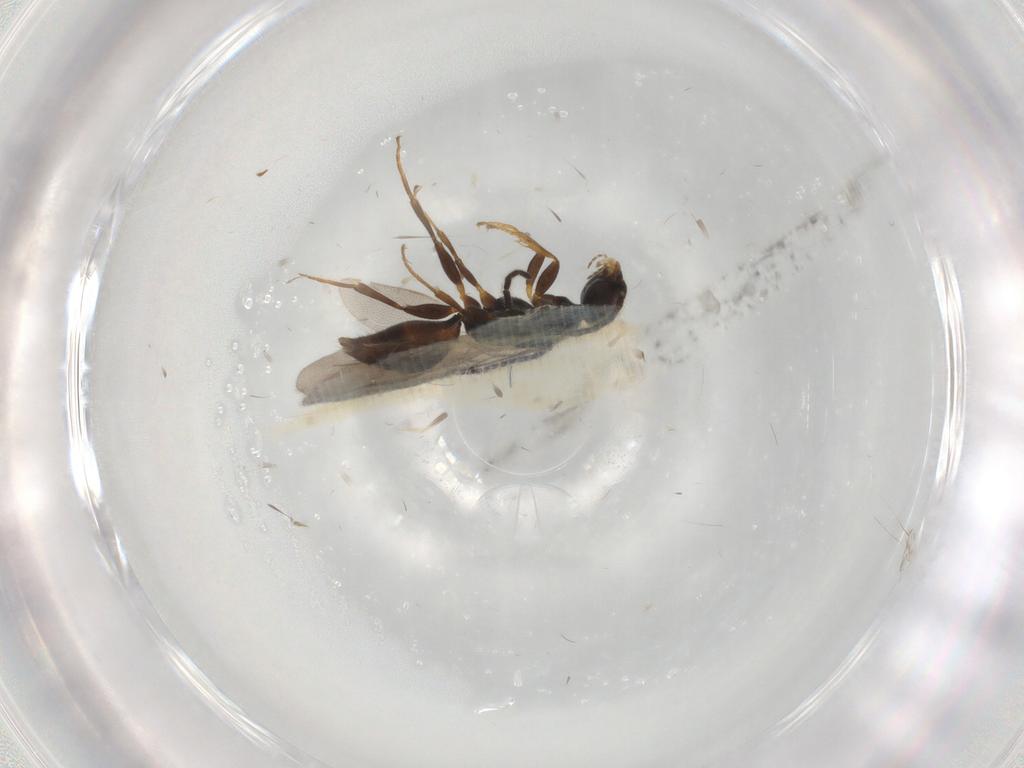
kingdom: Animalia
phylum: Arthropoda
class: Insecta
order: Hymenoptera
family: Bethylidae
